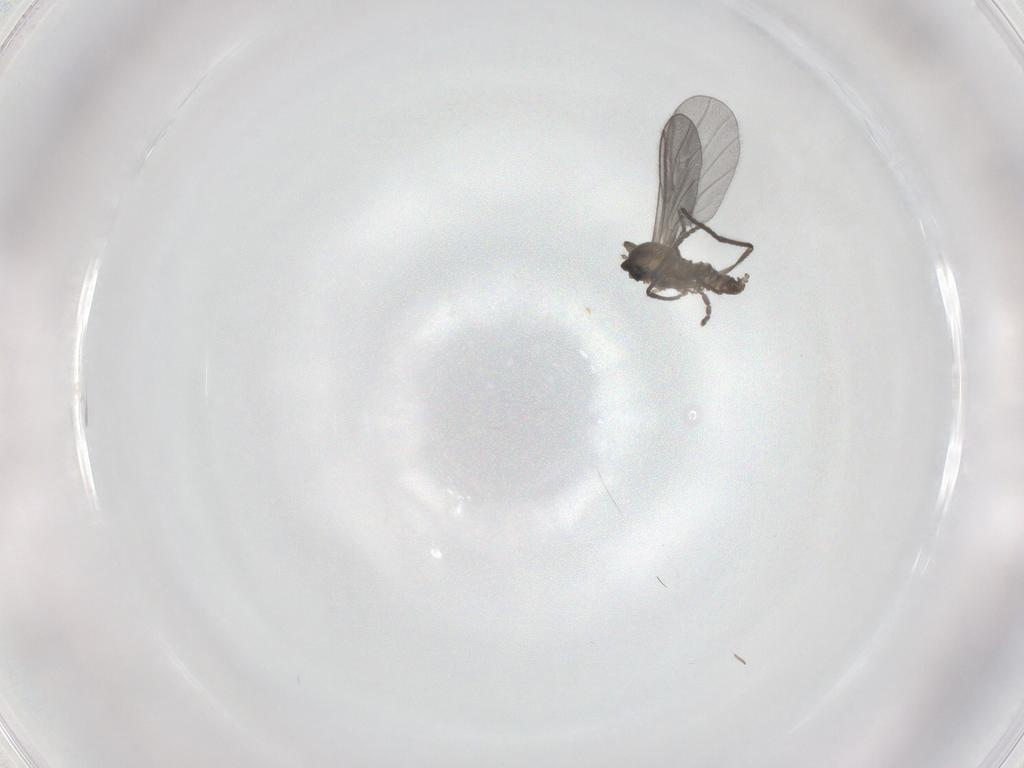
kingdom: Animalia
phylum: Arthropoda
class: Insecta
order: Diptera
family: Cecidomyiidae
